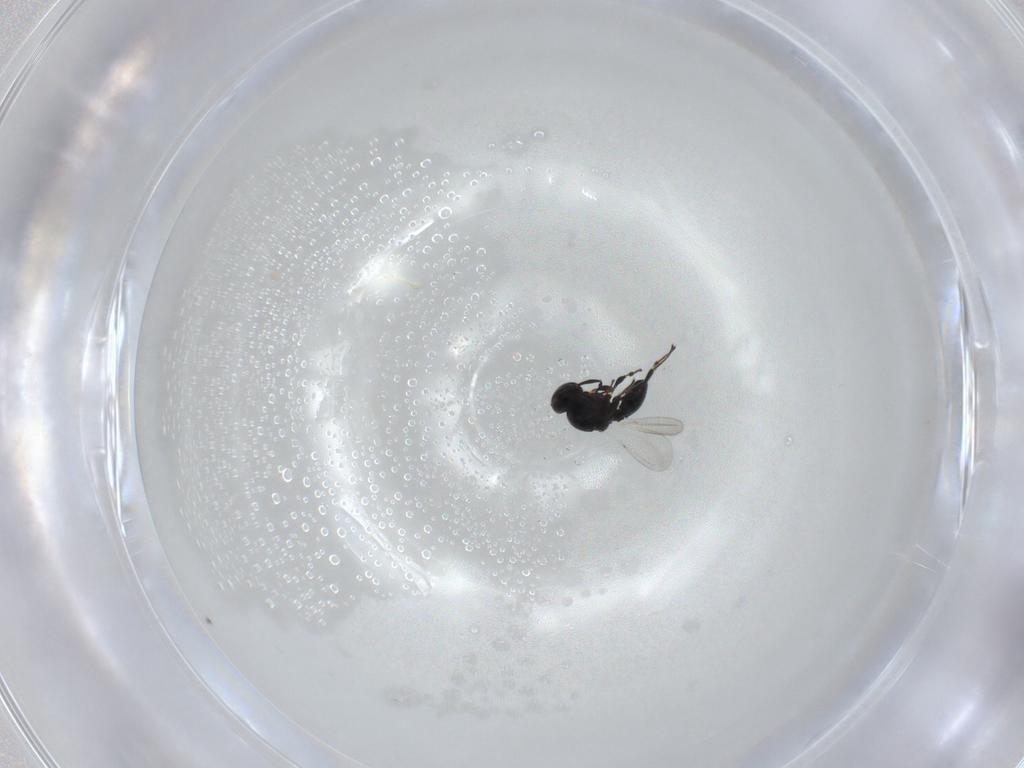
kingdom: Animalia
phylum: Arthropoda
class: Insecta
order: Hymenoptera
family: Platygastridae
